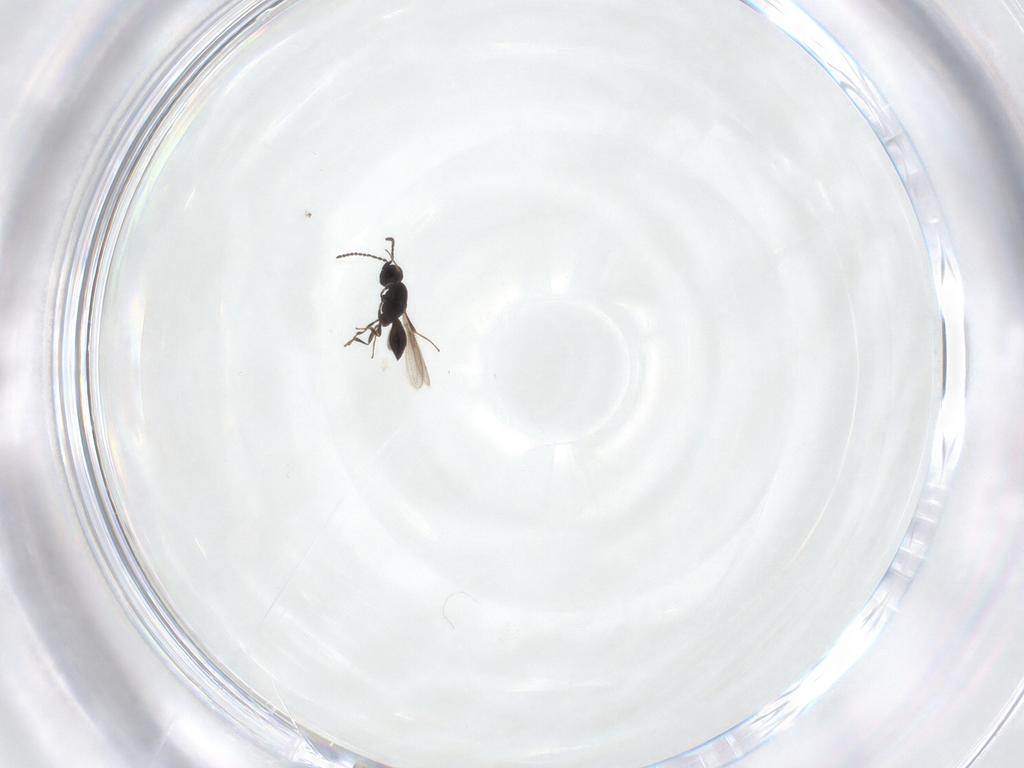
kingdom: Animalia
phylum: Arthropoda
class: Insecta
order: Hymenoptera
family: Scelionidae
